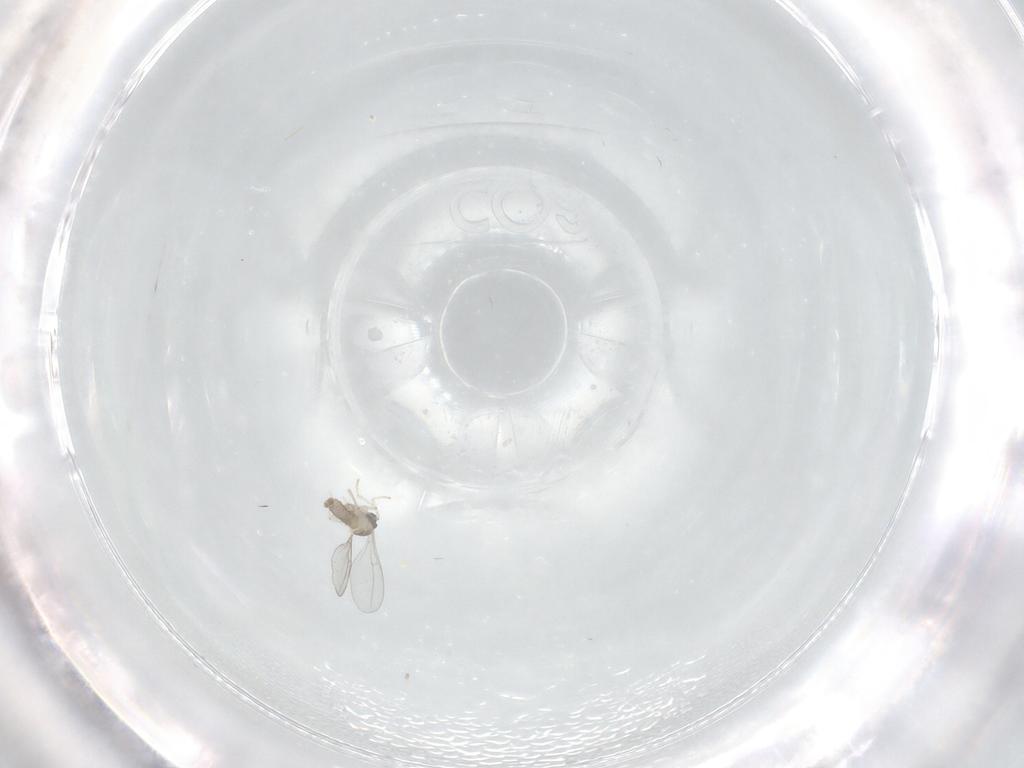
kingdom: Animalia
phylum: Arthropoda
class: Insecta
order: Diptera
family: Cecidomyiidae
